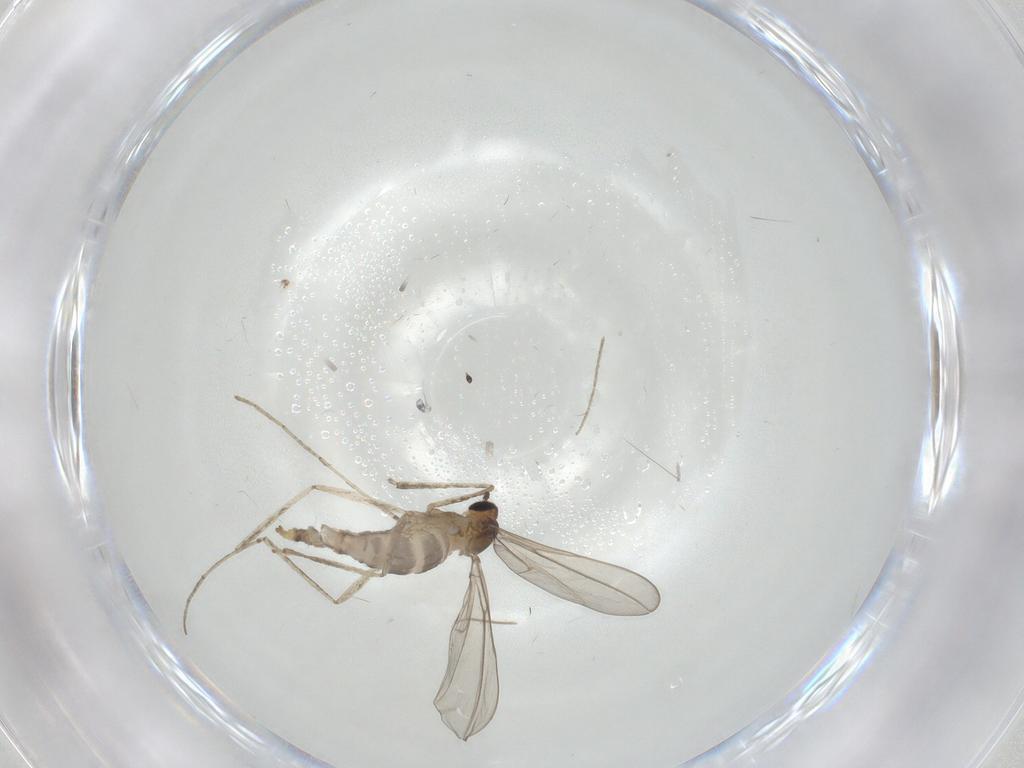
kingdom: Animalia
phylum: Arthropoda
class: Insecta
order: Diptera
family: Cecidomyiidae
